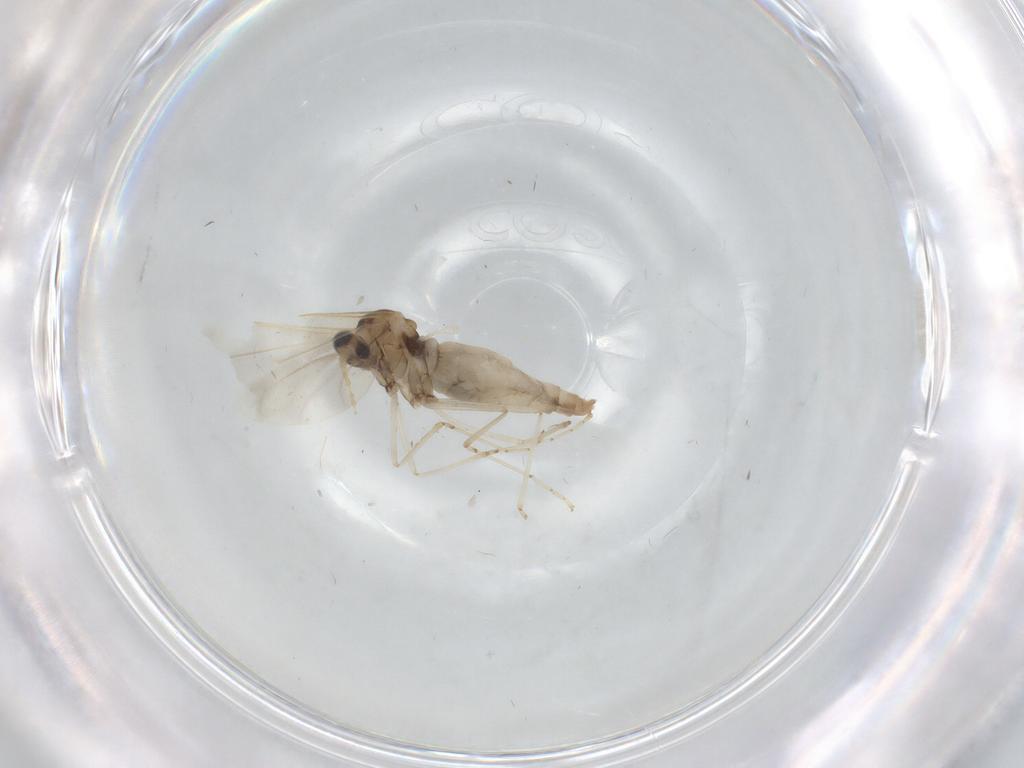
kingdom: Animalia
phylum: Arthropoda
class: Insecta
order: Diptera
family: Cecidomyiidae
